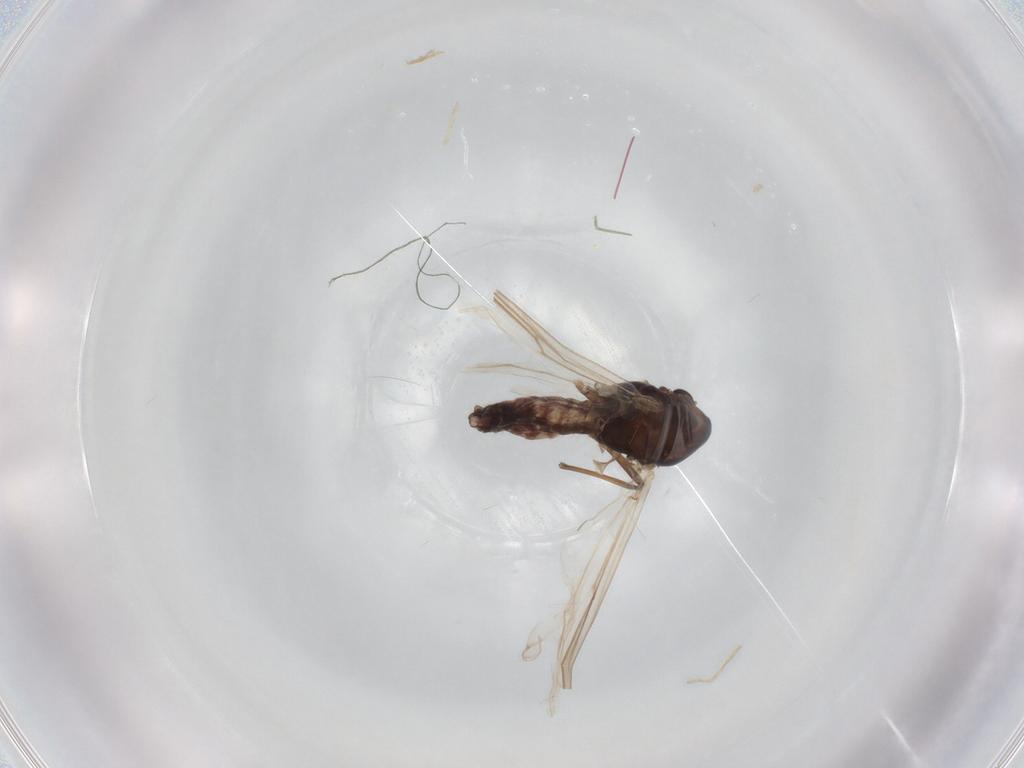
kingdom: Animalia
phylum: Arthropoda
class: Insecta
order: Diptera
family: Chironomidae
